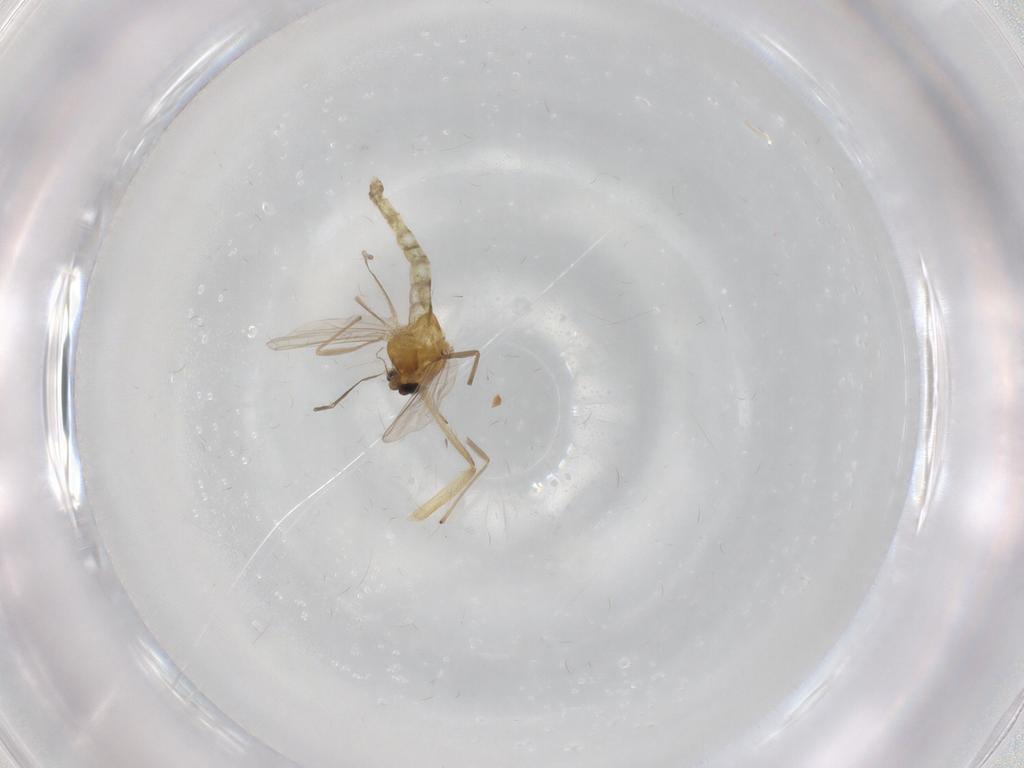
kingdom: Animalia
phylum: Arthropoda
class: Insecta
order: Diptera
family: Chironomidae
